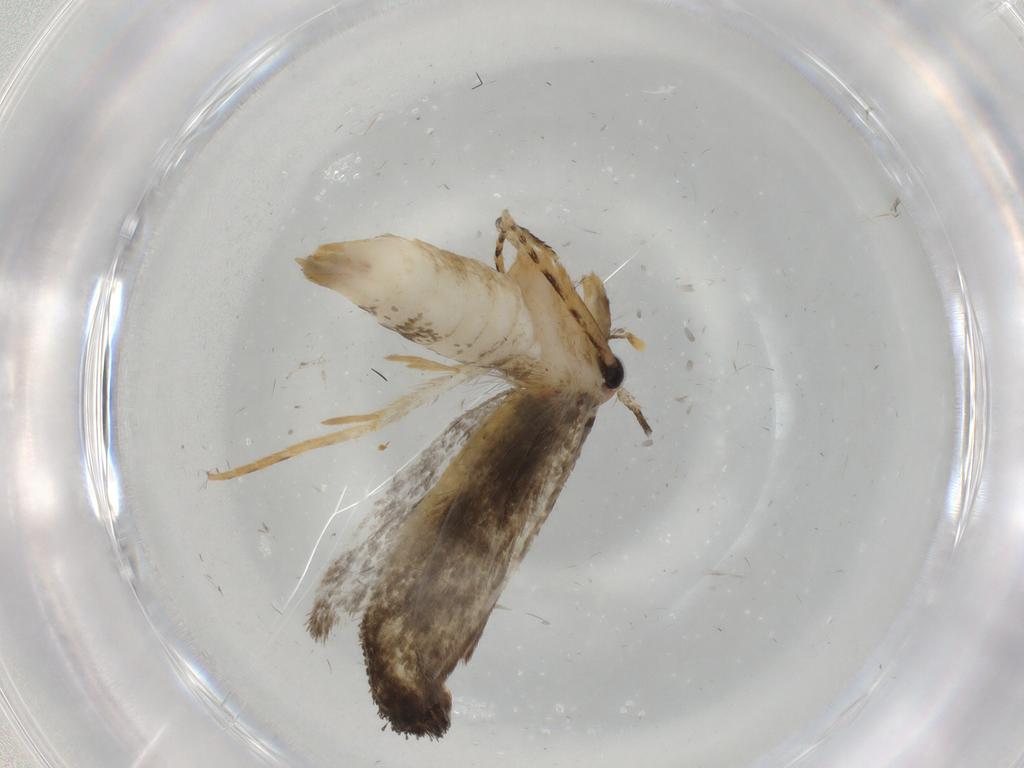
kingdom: Animalia
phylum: Arthropoda
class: Insecta
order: Lepidoptera
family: Tineidae
